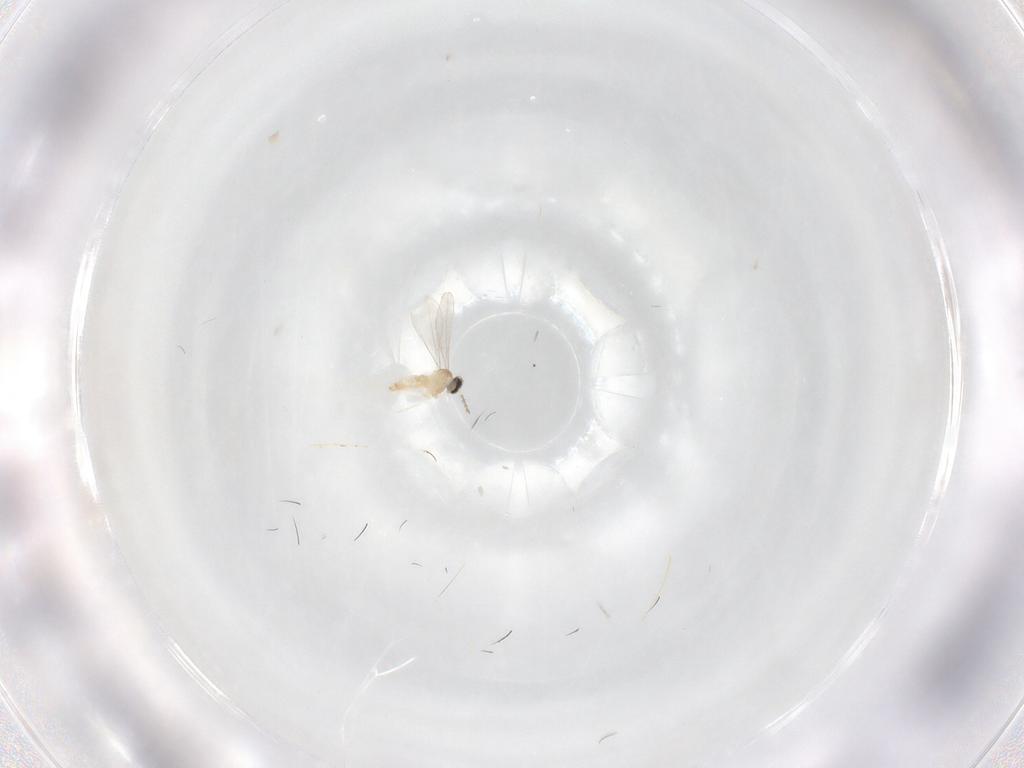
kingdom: Animalia
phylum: Arthropoda
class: Insecta
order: Diptera
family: Cecidomyiidae
